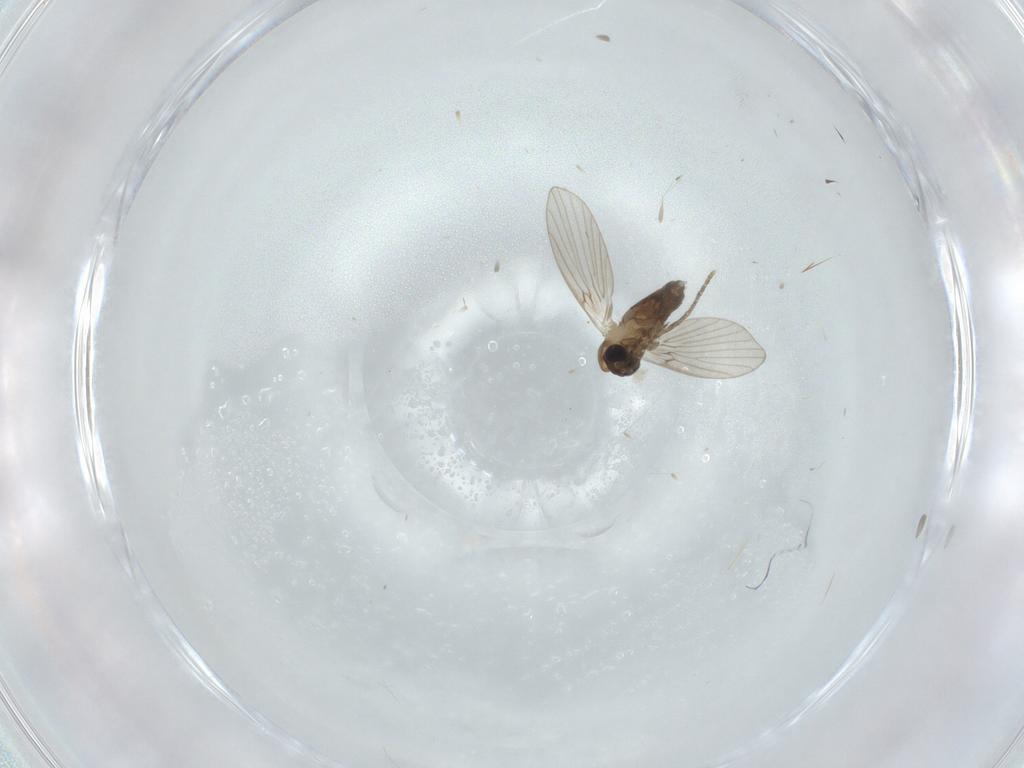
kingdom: Animalia
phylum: Arthropoda
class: Insecta
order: Diptera
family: Psychodidae
